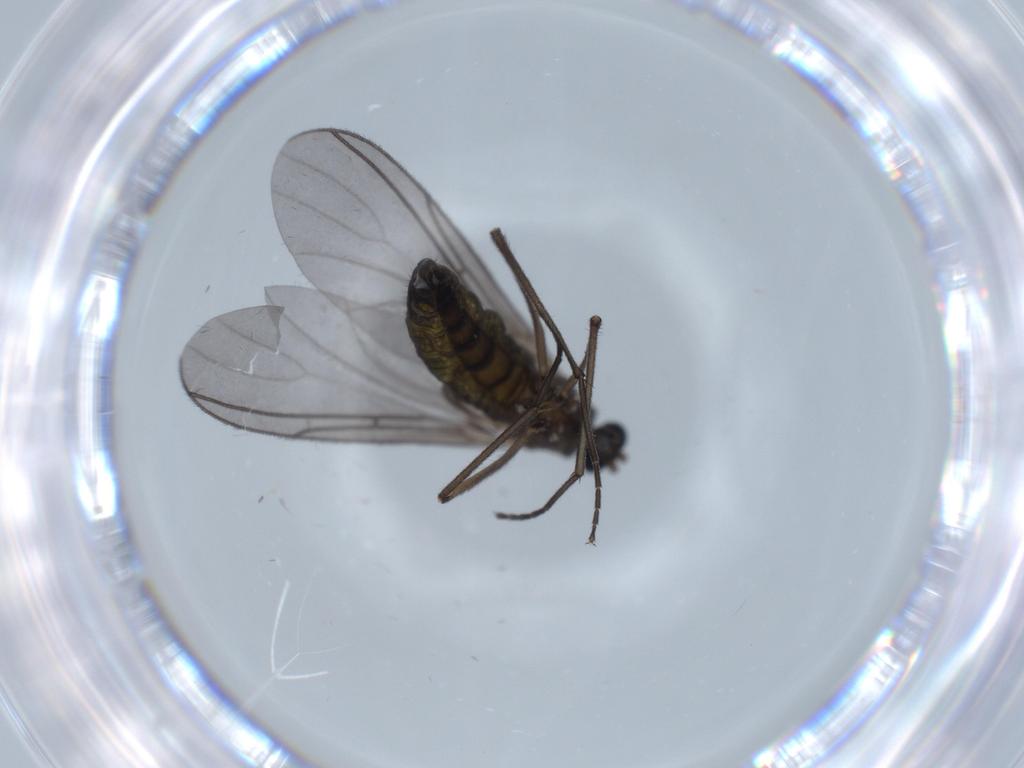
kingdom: Animalia
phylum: Arthropoda
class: Insecta
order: Diptera
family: Sciaridae
